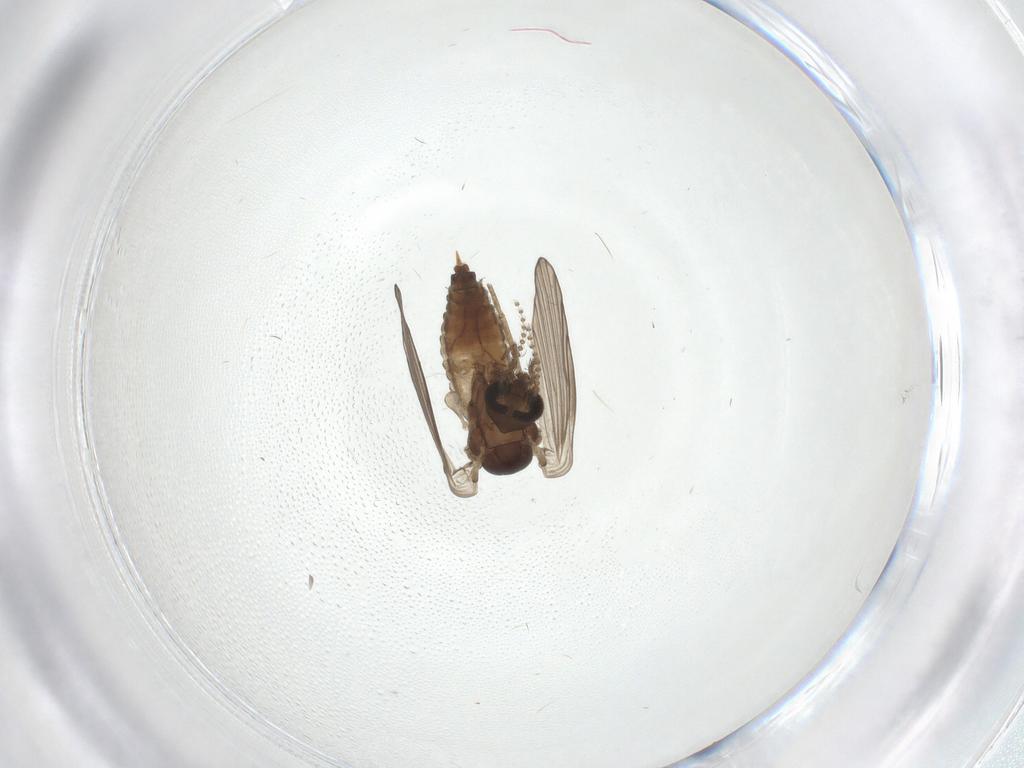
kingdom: Animalia
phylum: Arthropoda
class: Insecta
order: Diptera
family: Psychodidae
